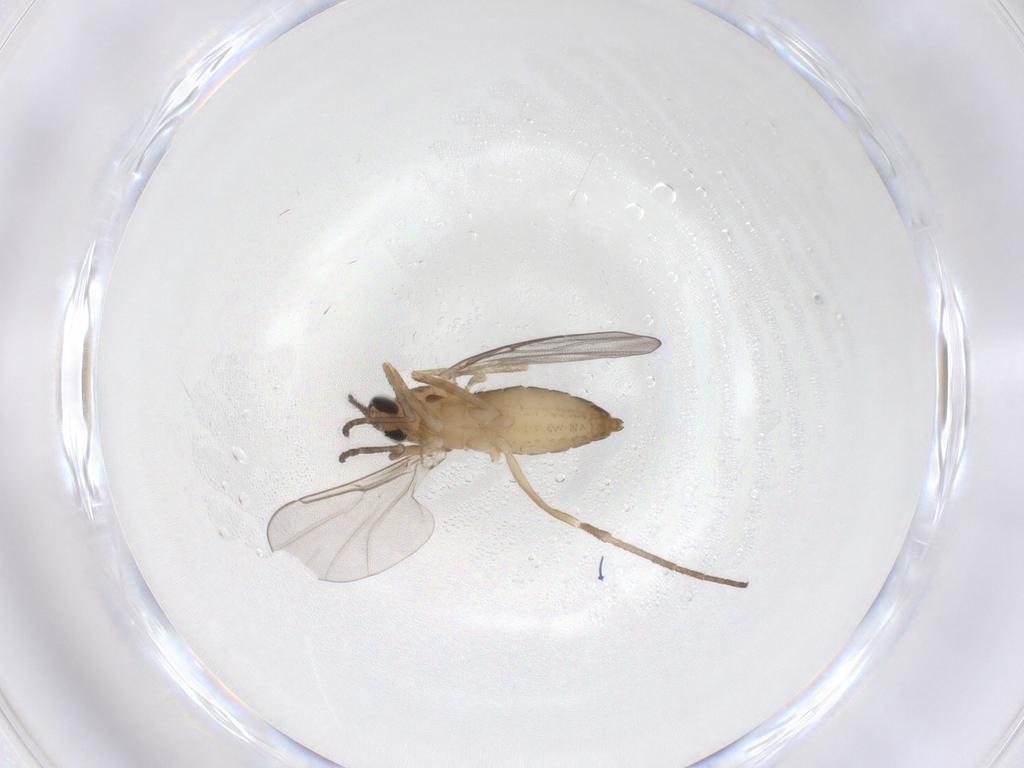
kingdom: Animalia
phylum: Arthropoda
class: Insecta
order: Diptera
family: Cecidomyiidae
